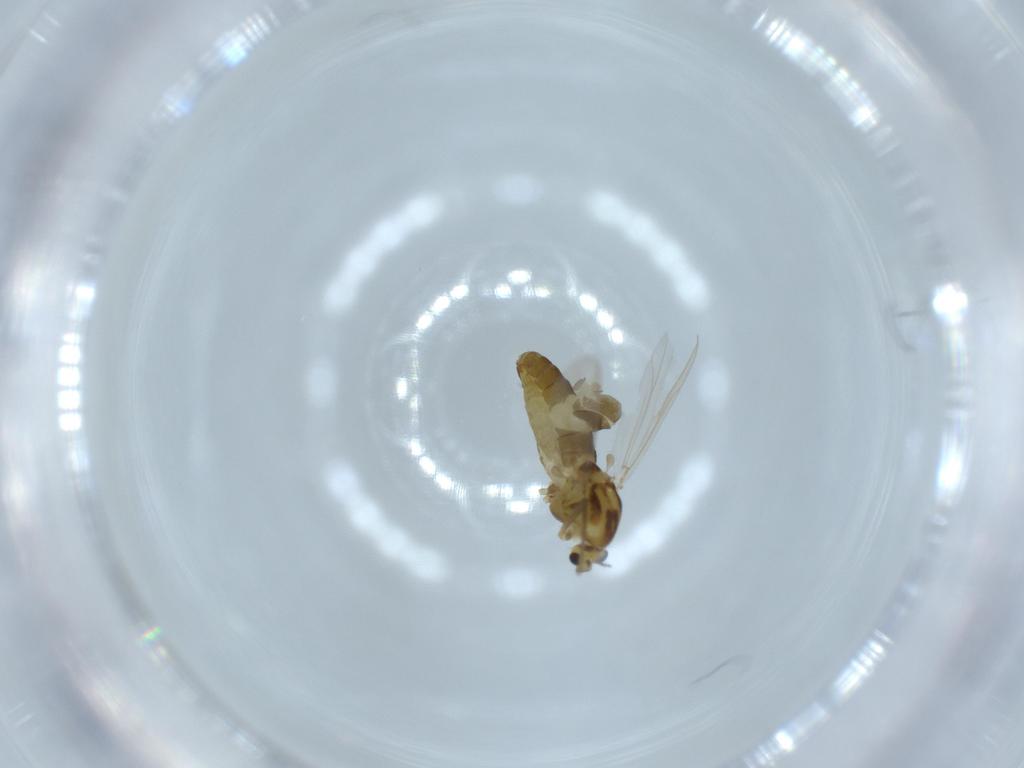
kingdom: Animalia
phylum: Arthropoda
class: Insecta
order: Diptera
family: Chironomidae
